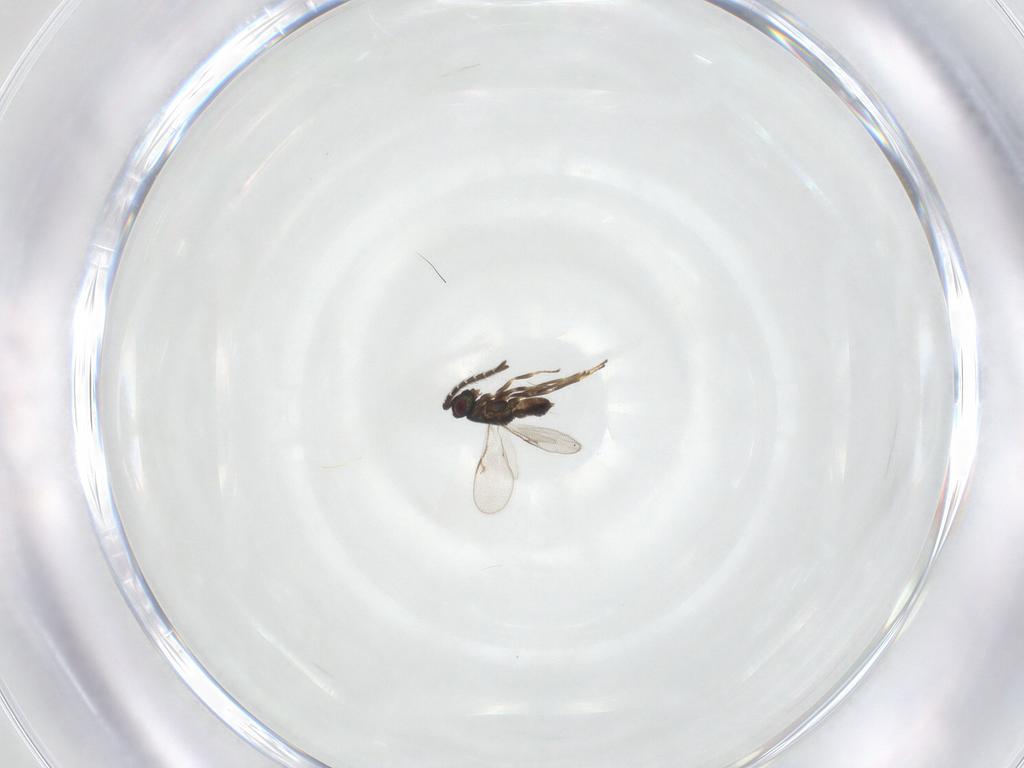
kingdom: Animalia
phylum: Arthropoda
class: Insecta
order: Hymenoptera
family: Encyrtidae
